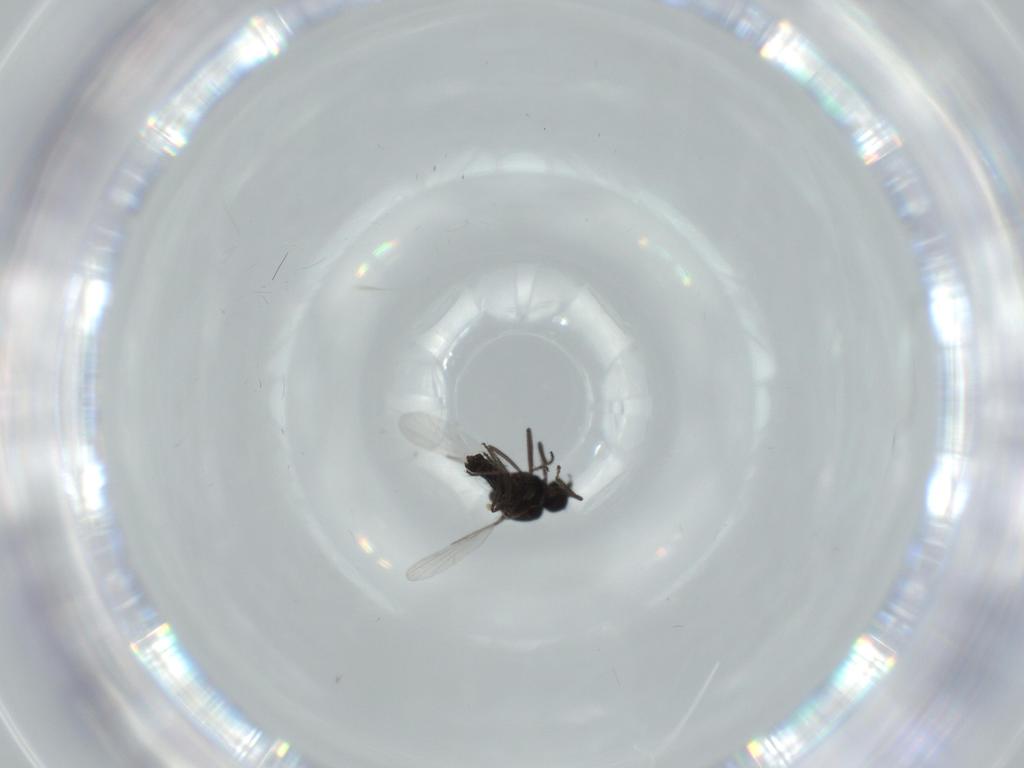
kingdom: Animalia
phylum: Arthropoda
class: Insecta
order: Diptera
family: Ceratopogonidae
